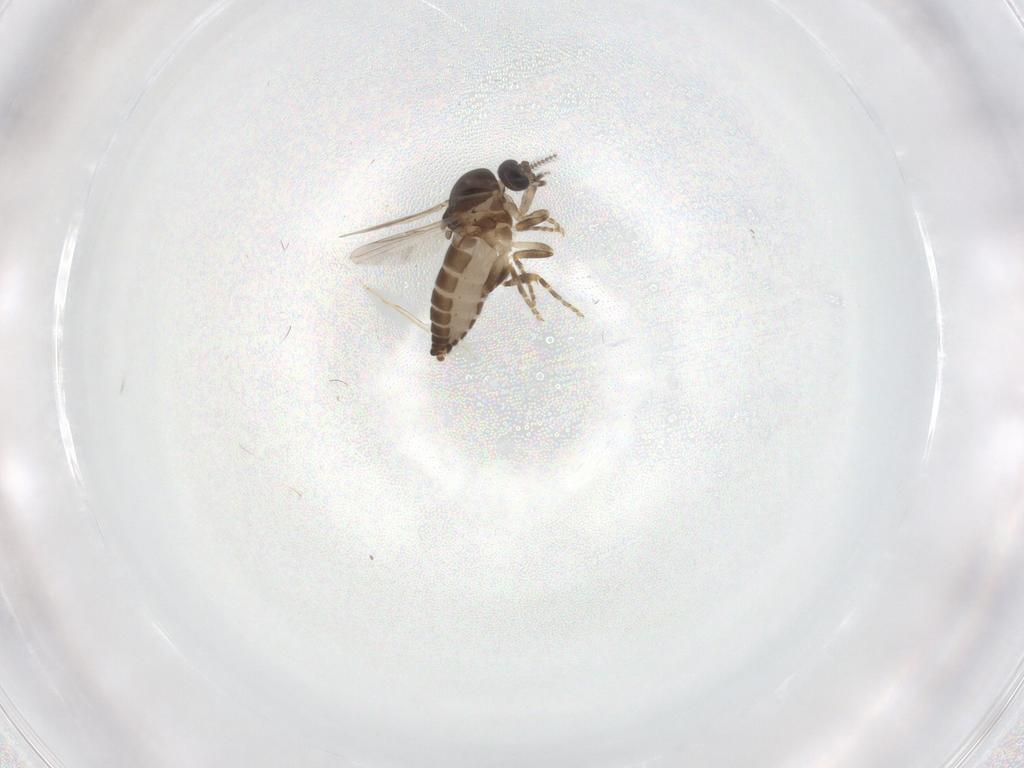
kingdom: Animalia
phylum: Arthropoda
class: Insecta
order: Diptera
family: Ceratopogonidae
